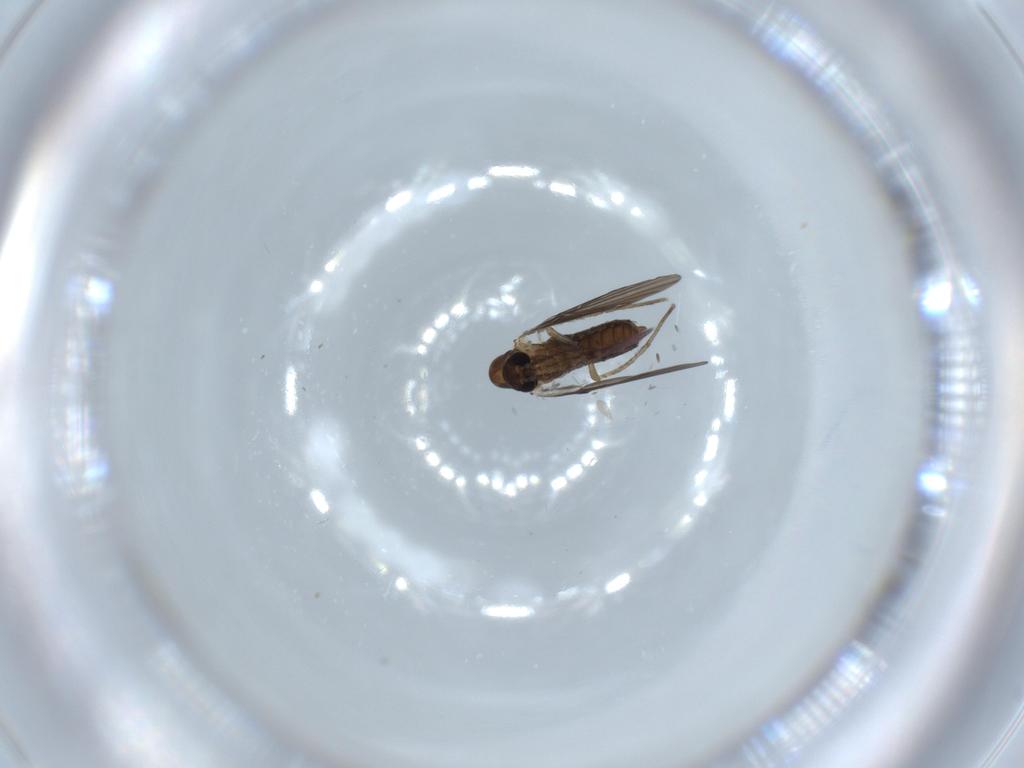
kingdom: Animalia
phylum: Arthropoda
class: Insecta
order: Diptera
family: Psychodidae
